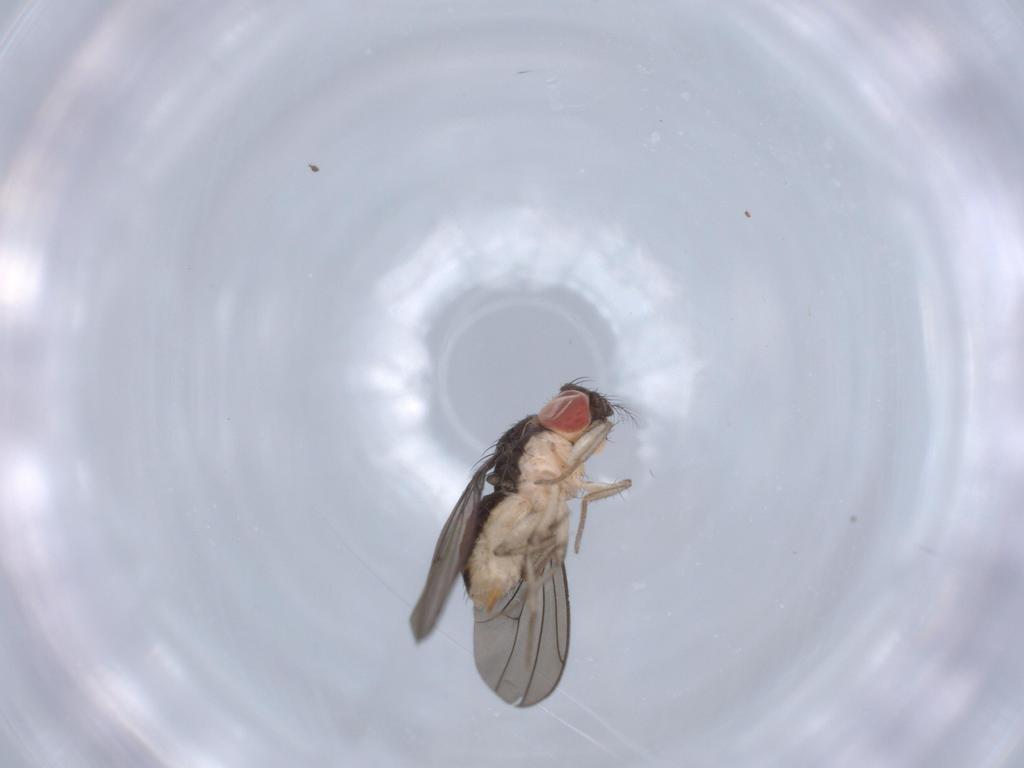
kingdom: Animalia
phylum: Arthropoda
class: Insecta
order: Diptera
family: Drosophilidae
